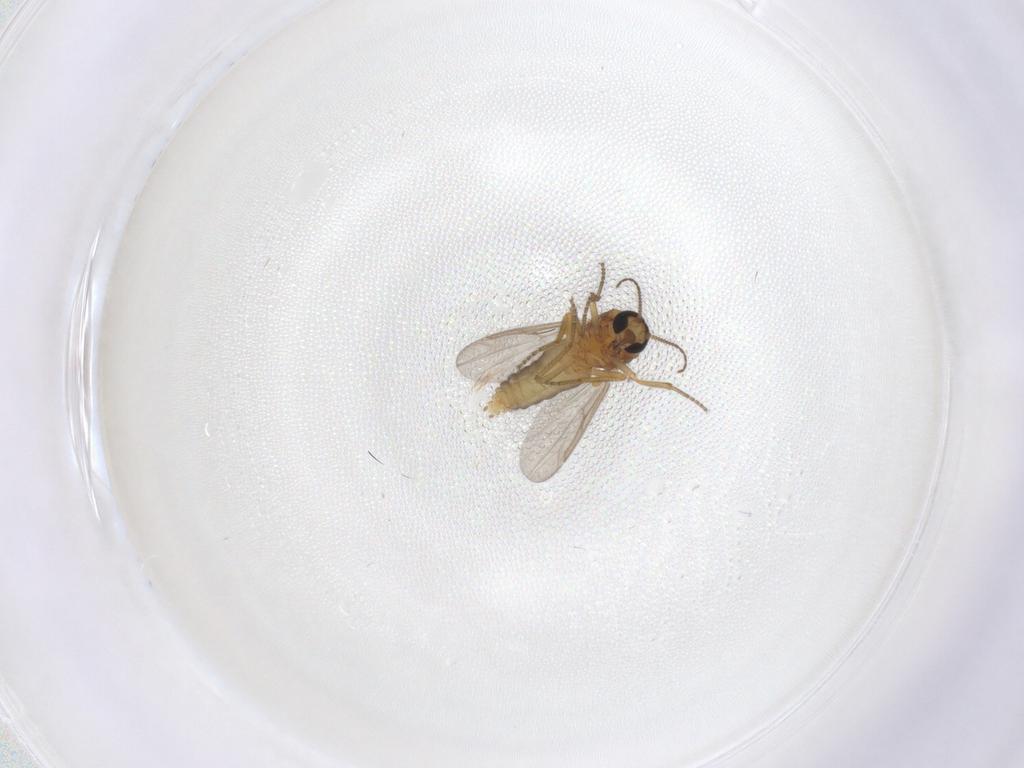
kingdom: Animalia
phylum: Arthropoda
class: Insecta
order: Diptera
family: Ceratopogonidae
